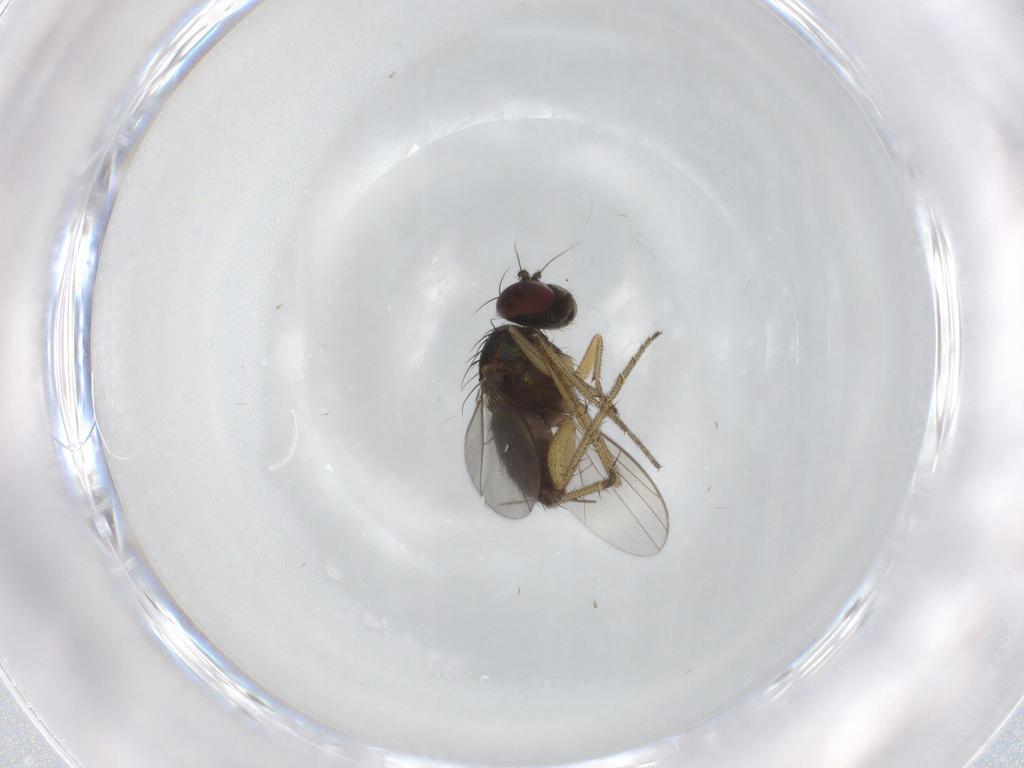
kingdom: Animalia
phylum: Arthropoda
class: Insecta
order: Diptera
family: Dolichopodidae
